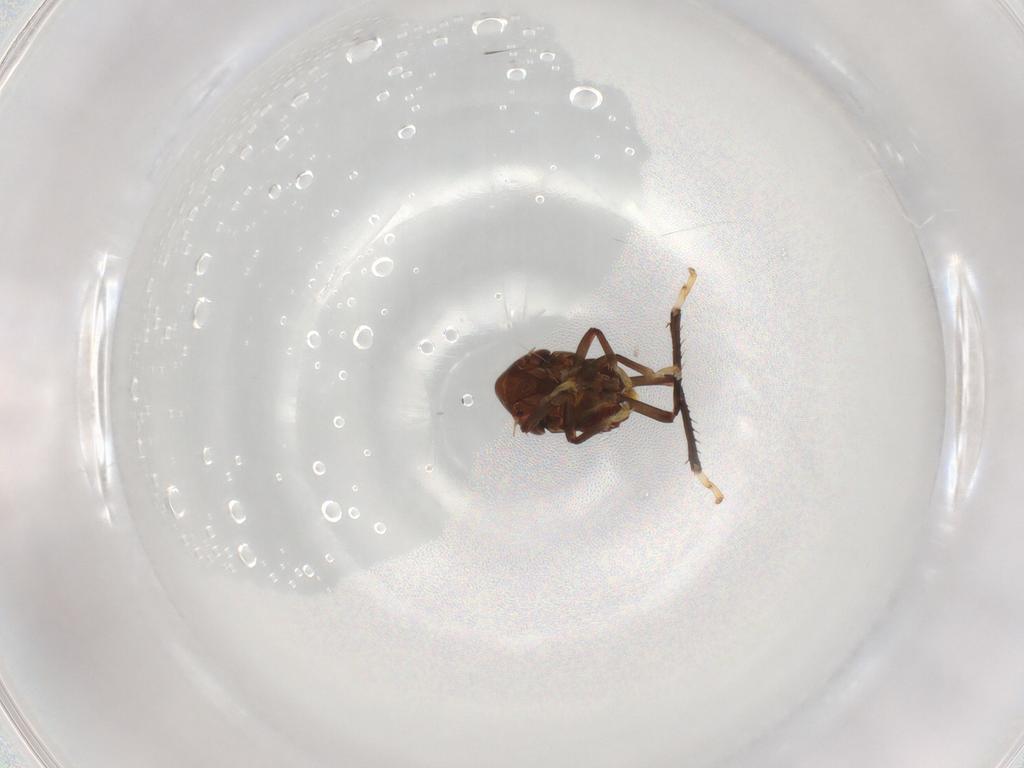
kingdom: Animalia
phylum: Arthropoda
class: Insecta
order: Hemiptera
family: Cicadellidae
